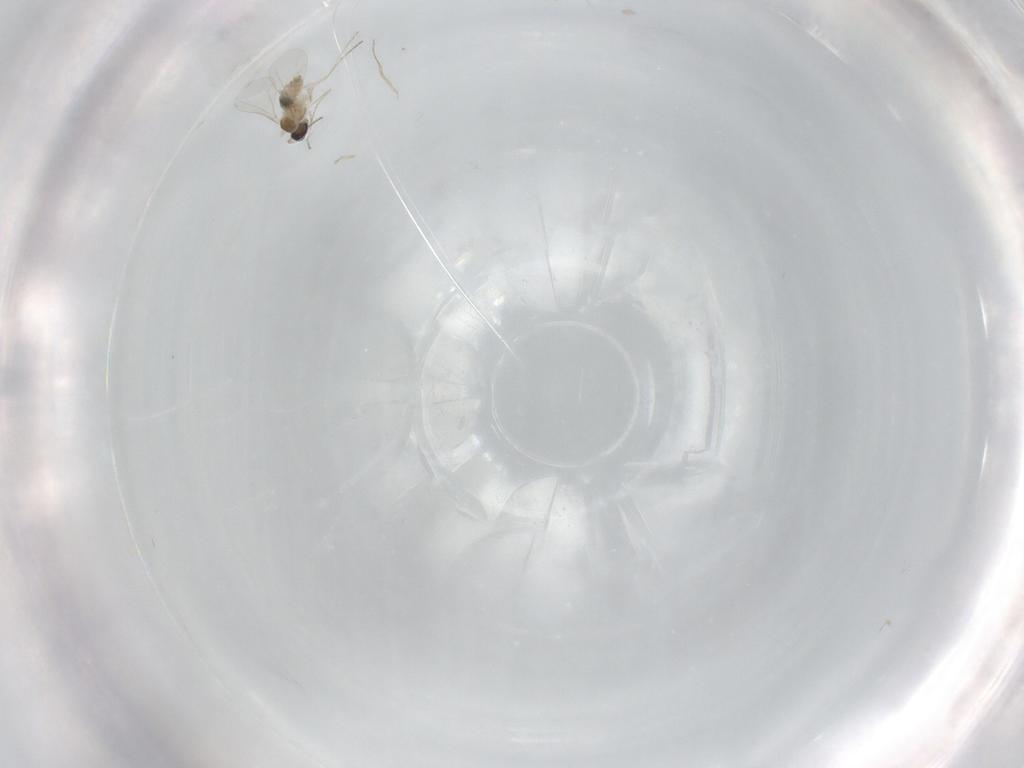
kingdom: Animalia
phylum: Arthropoda
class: Insecta
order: Diptera
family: Cecidomyiidae
